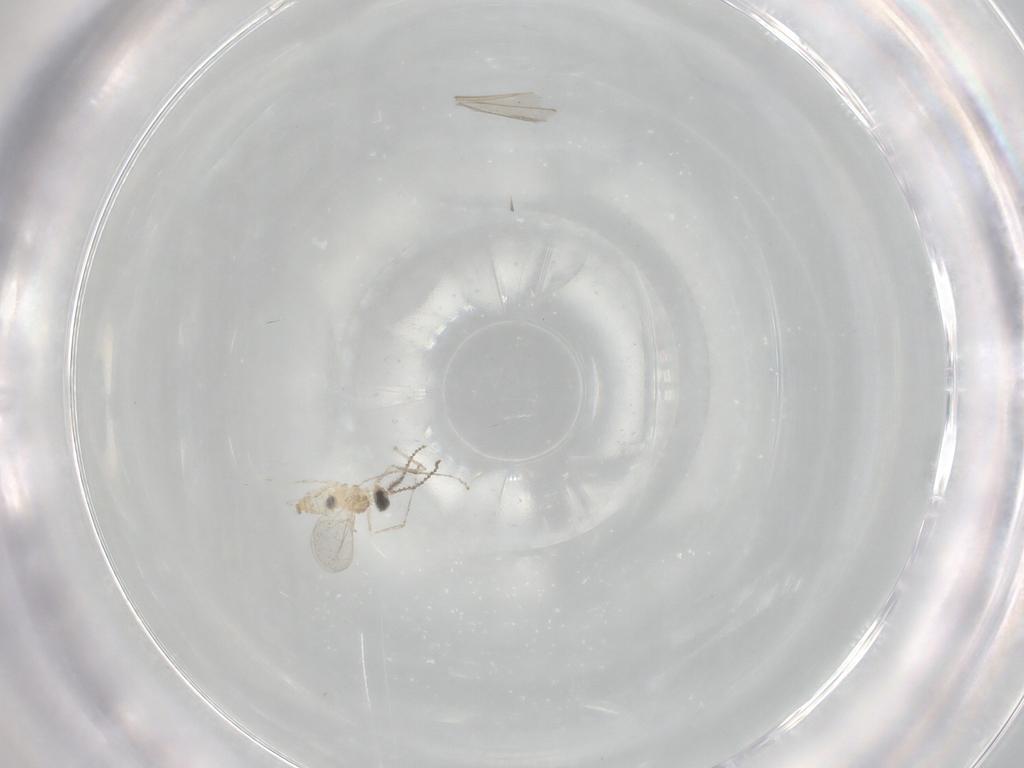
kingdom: Animalia
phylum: Arthropoda
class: Insecta
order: Diptera
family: Cecidomyiidae
